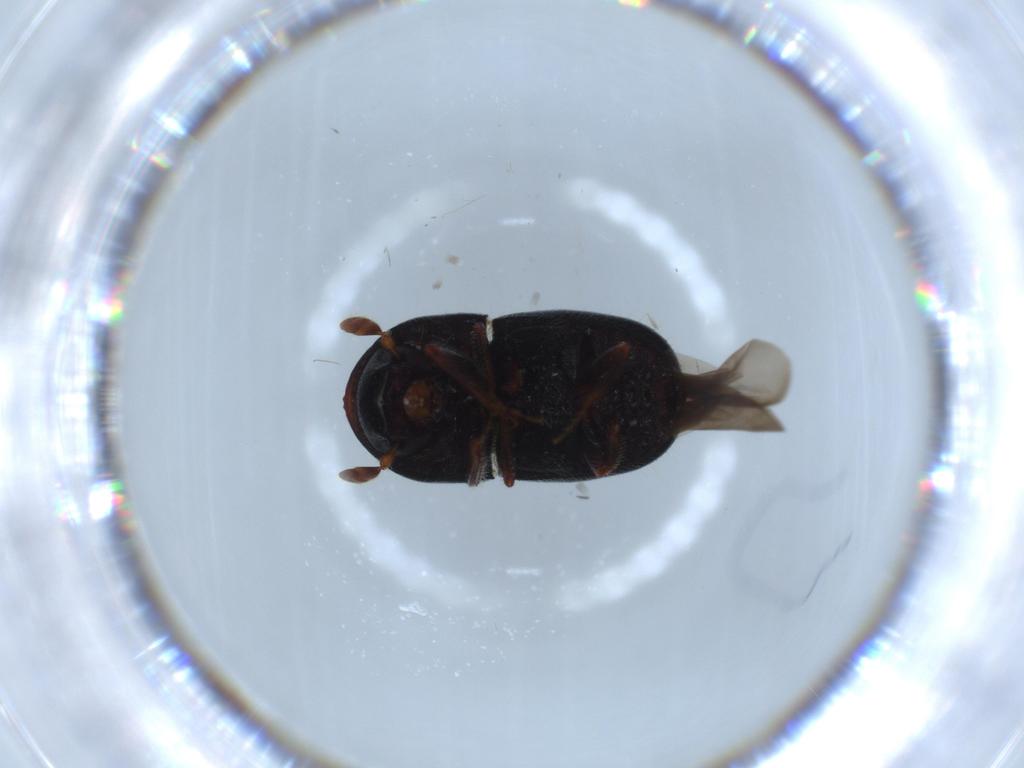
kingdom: Animalia
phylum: Arthropoda
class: Insecta
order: Coleoptera
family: Curculionidae
